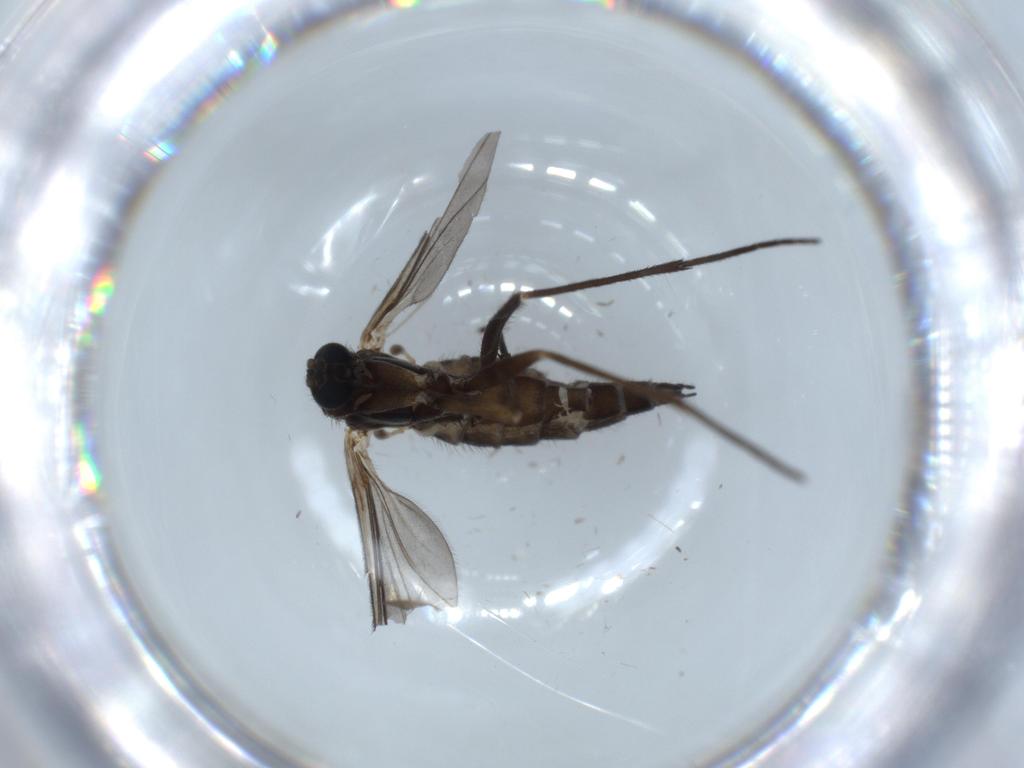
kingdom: Animalia
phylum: Arthropoda
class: Insecta
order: Diptera
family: Sciaridae
